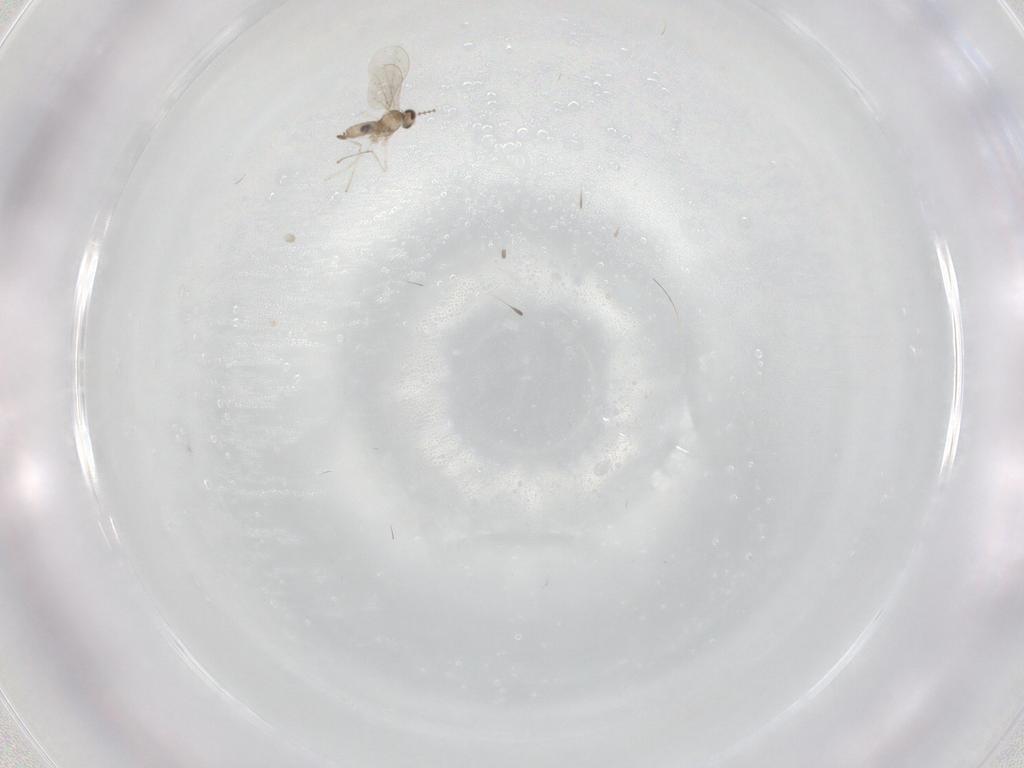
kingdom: Animalia
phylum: Arthropoda
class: Insecta
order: Diptera
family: Cecidomyiidae
